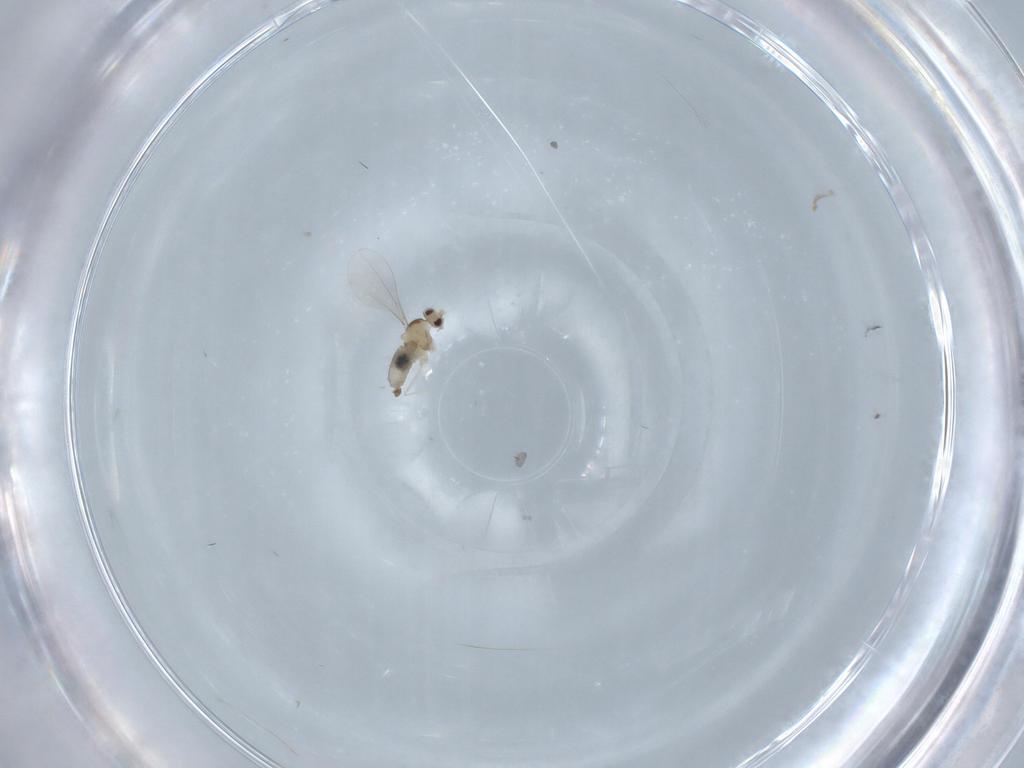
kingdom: Animalia
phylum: Arthropoda
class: Insecta
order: Diptera
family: Cecidomyiidae
